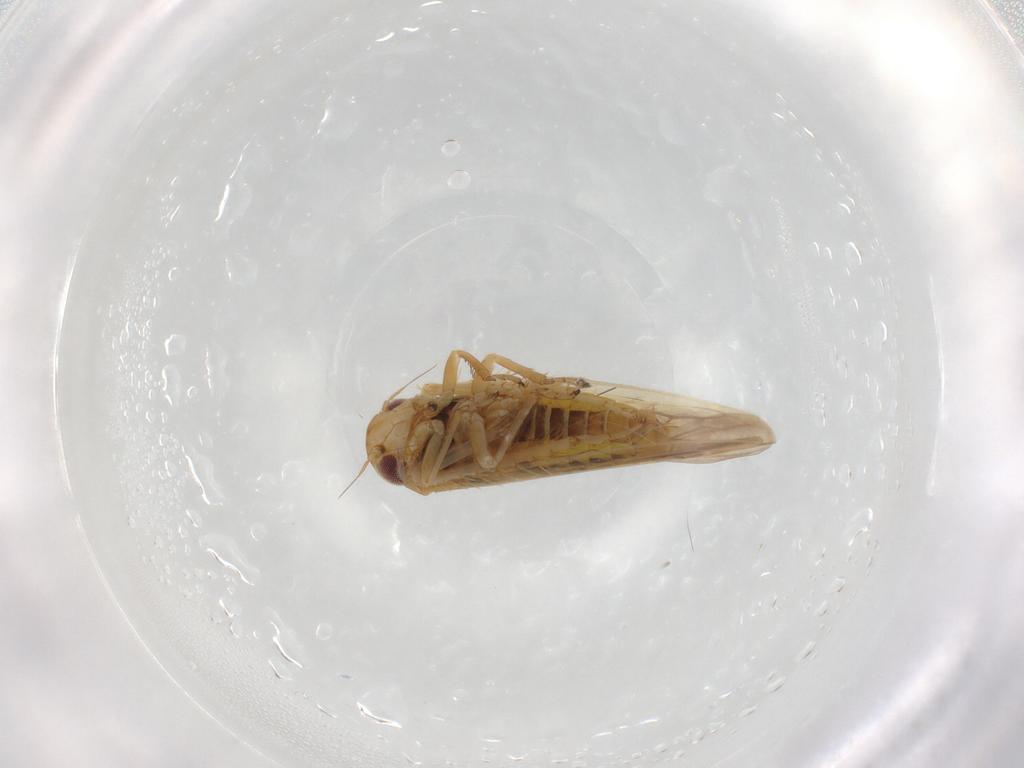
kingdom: Animalia
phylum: Arthropoda
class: Insecta
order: Hemiptera
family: Cicadellidae
